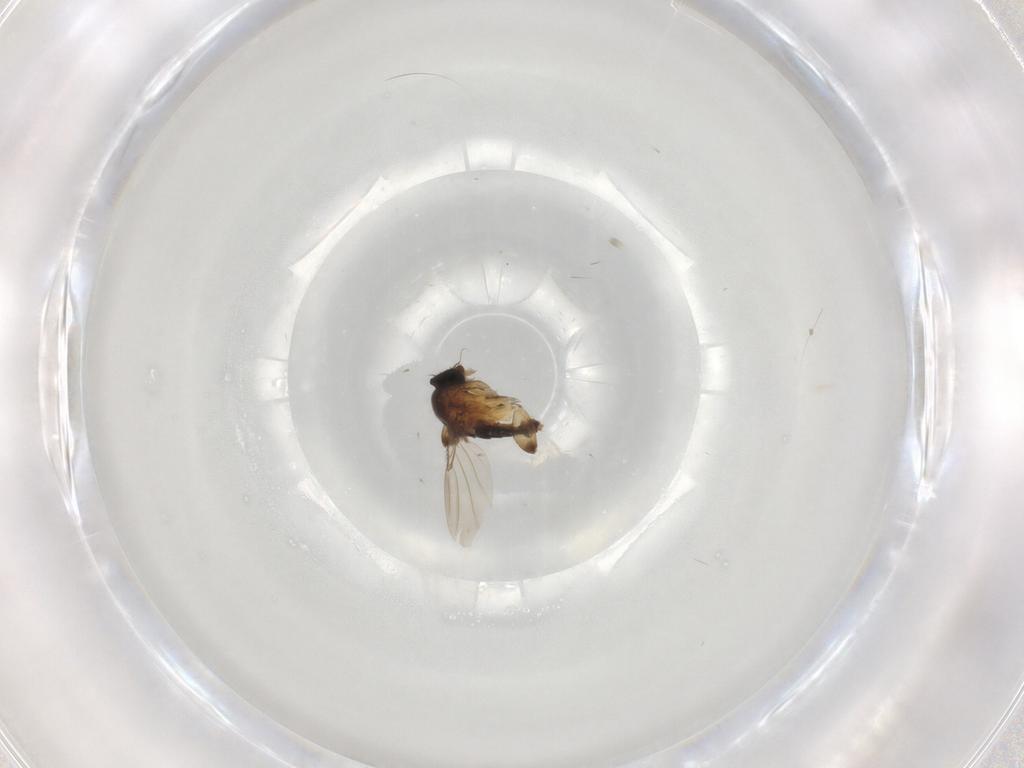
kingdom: Animalia
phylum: Arthropoda
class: Insecta
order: Diptera
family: Phoridae
